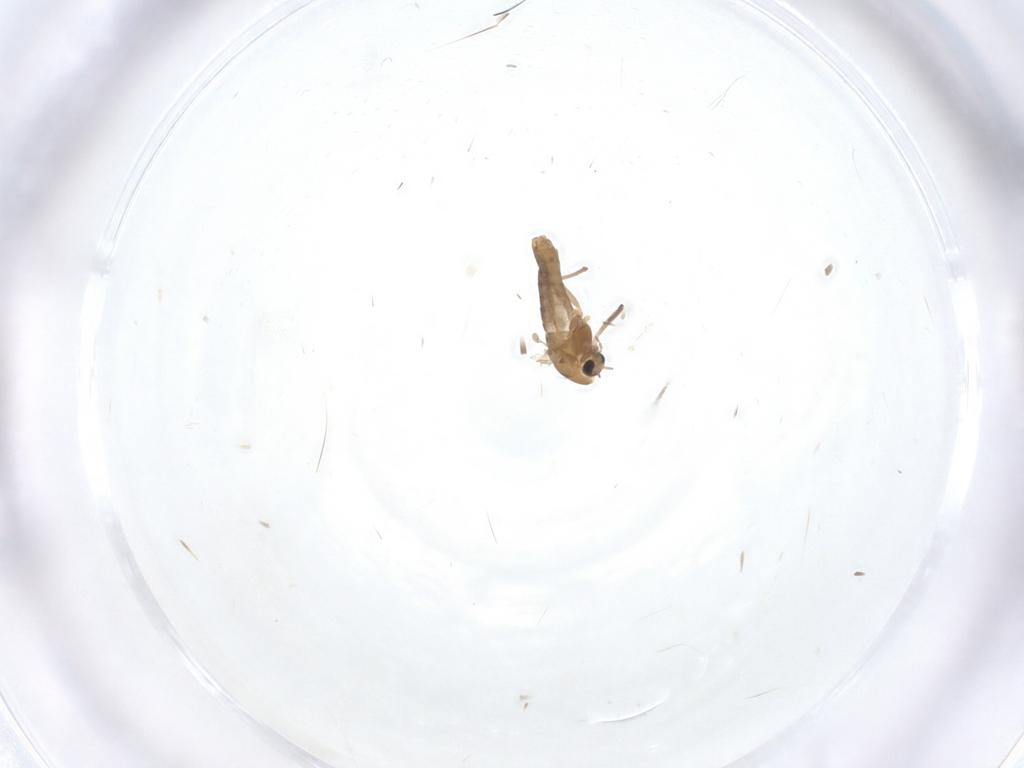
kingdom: Animalia
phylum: Arthropoda
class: Insecta
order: Diptera
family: Chironomidae
